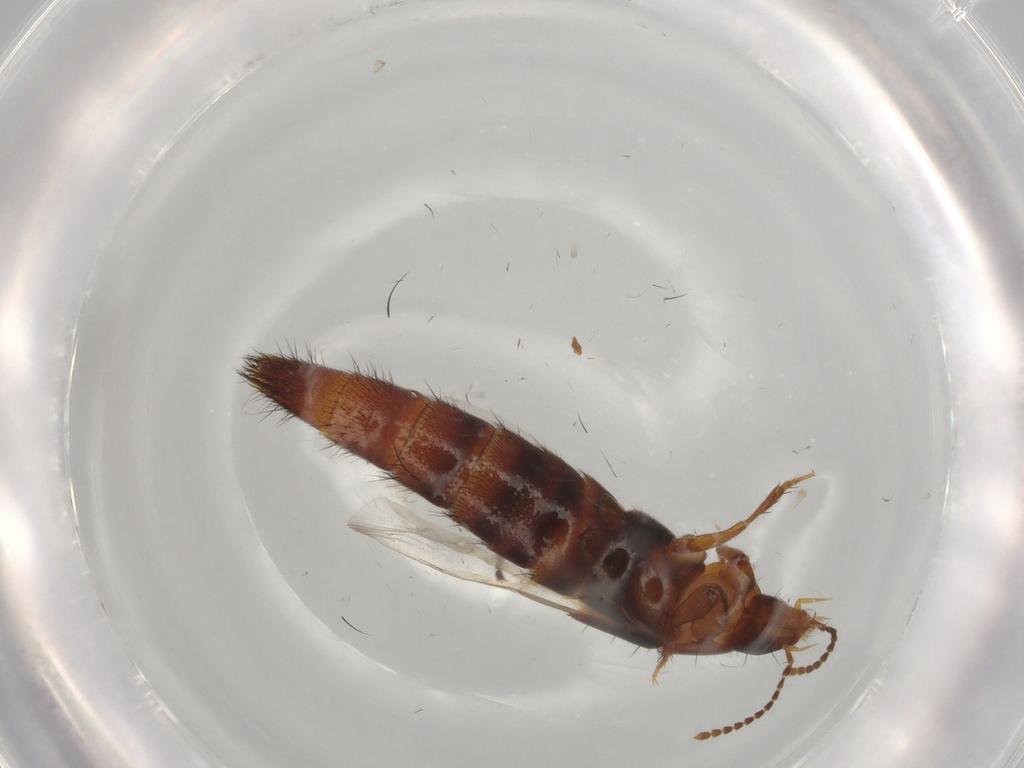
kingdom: Animalia
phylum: Arthropoda
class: Insecta
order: Coleoptera
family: Staphylinidae
